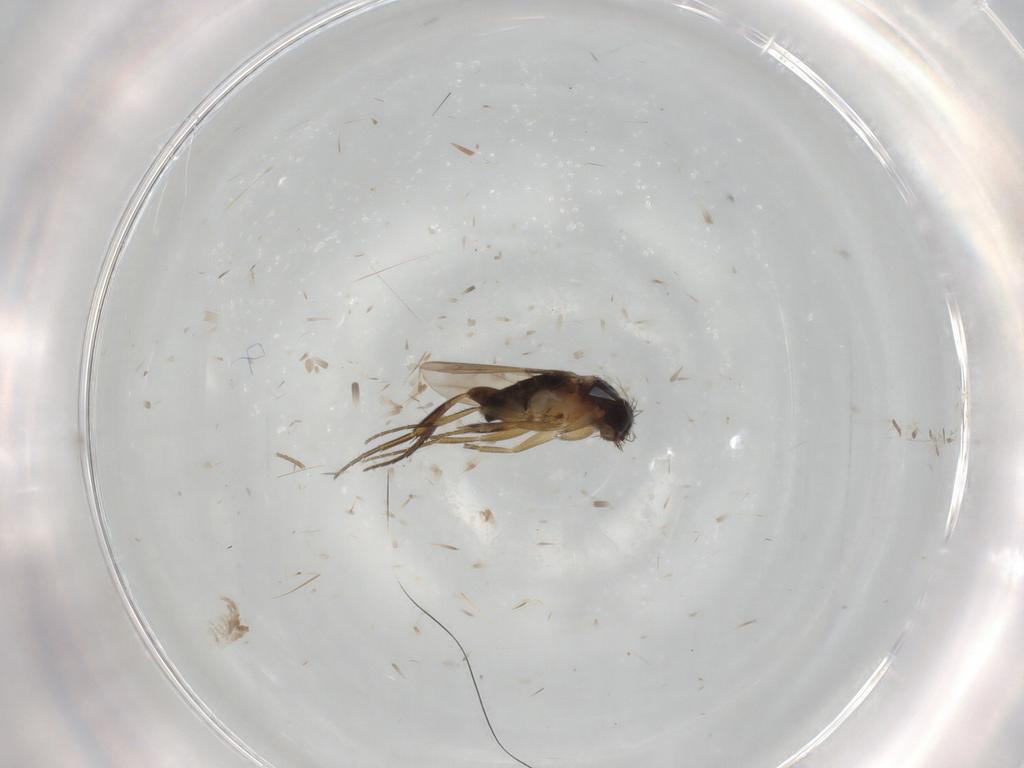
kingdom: Animalia
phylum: Arthropoda
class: Insecta
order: Diptera
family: Phoridae
